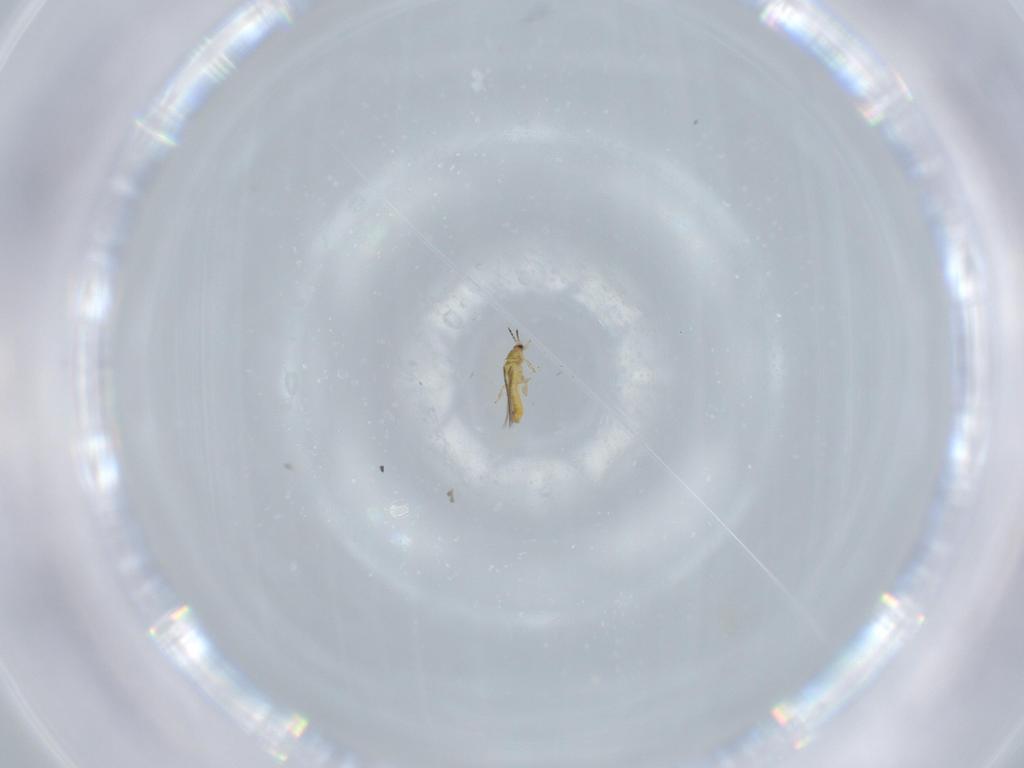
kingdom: Animalia
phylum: Arthropoda
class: Insecta
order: Thysanoptera
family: Thripidae
